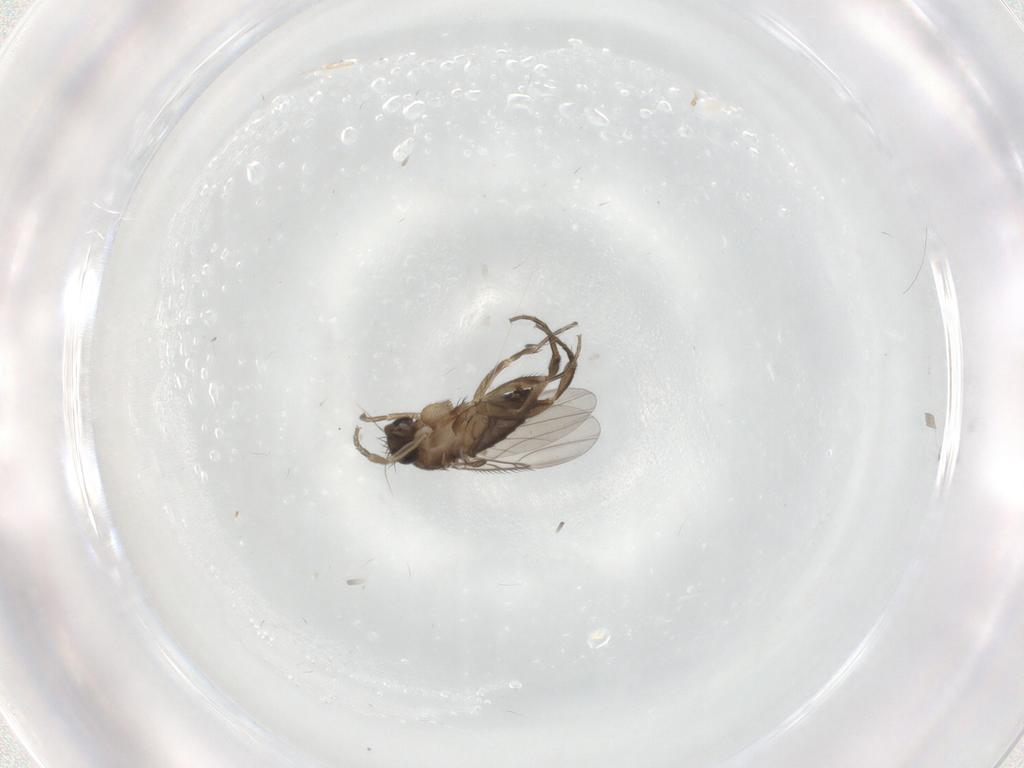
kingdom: Animalia
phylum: Arthropoda
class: Insecta
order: Diptera
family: Phoridae
